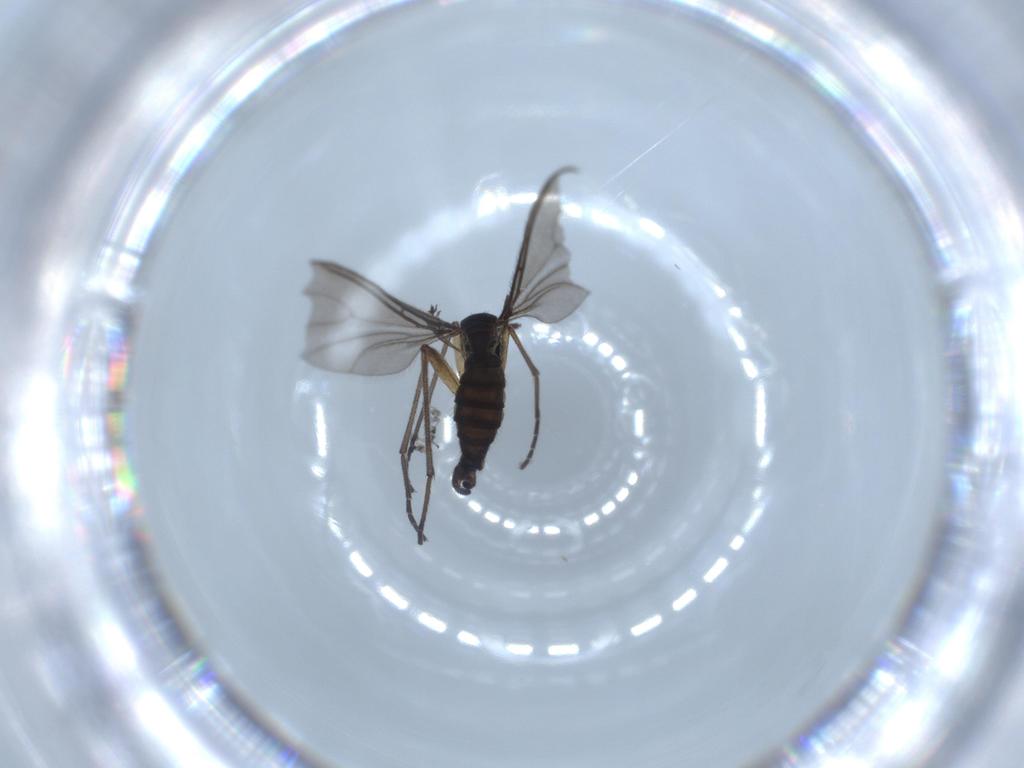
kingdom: Animalia
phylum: Arthropoda
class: Insecta
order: Diptera
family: Sciaridae
